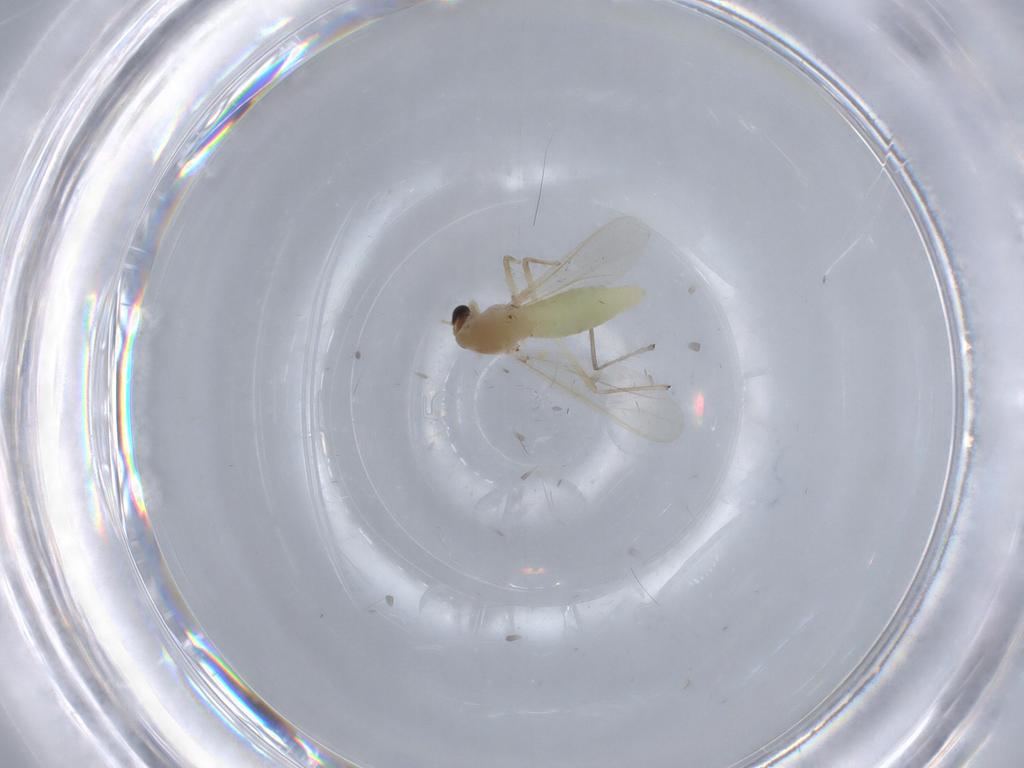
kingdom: Animalia
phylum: Arthropoda
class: Insecta
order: Diptera
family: Chironomidae
